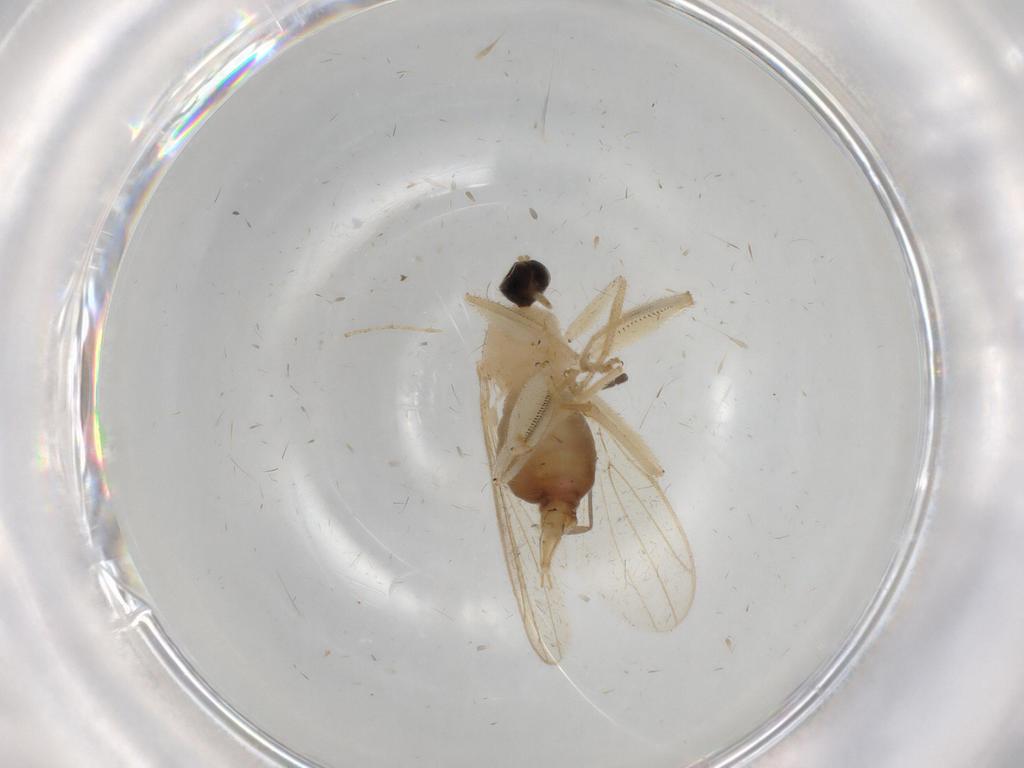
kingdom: Animalia
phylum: Arthropoda
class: Insecta
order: Diptera
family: Hybotidae
